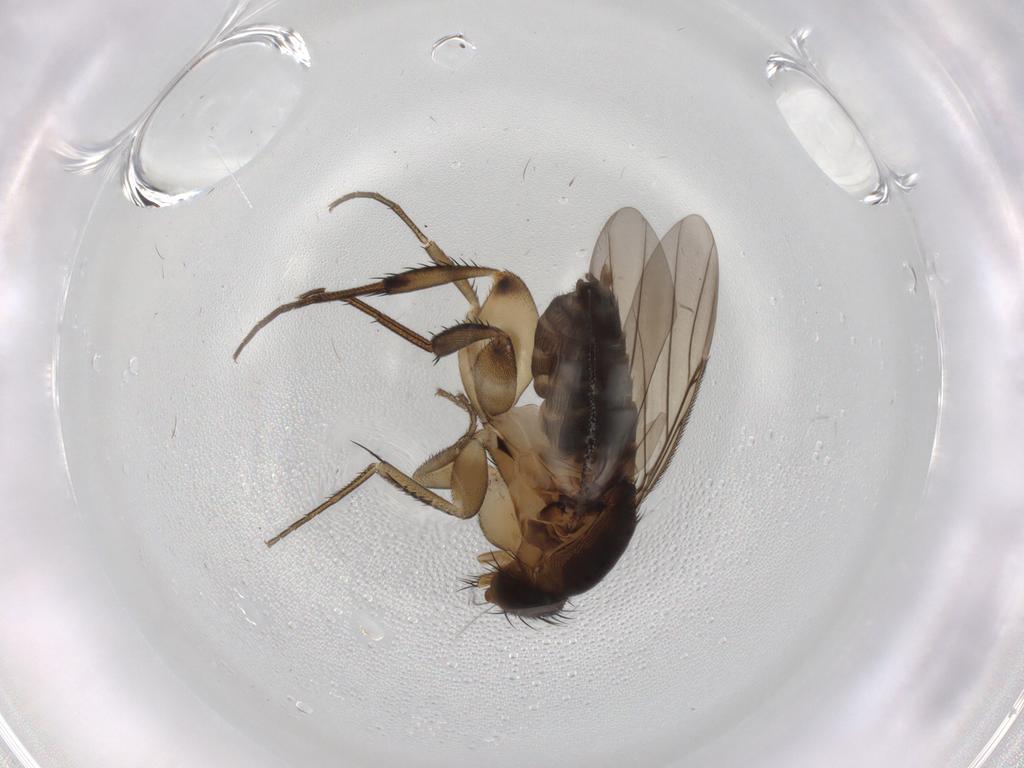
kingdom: Animalia
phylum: Arthropoda
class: Insecta
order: Diptera
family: Phoridae
